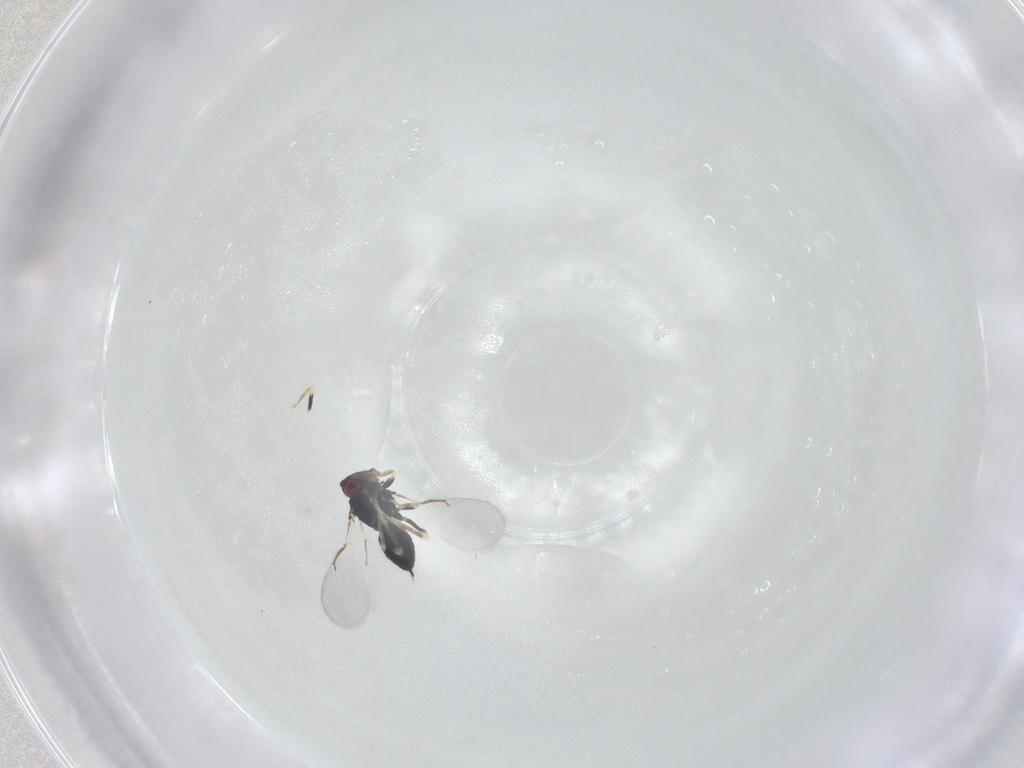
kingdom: Animalia
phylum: Arthropoda
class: Insecta
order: Hymenoptera
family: Eulophidae
